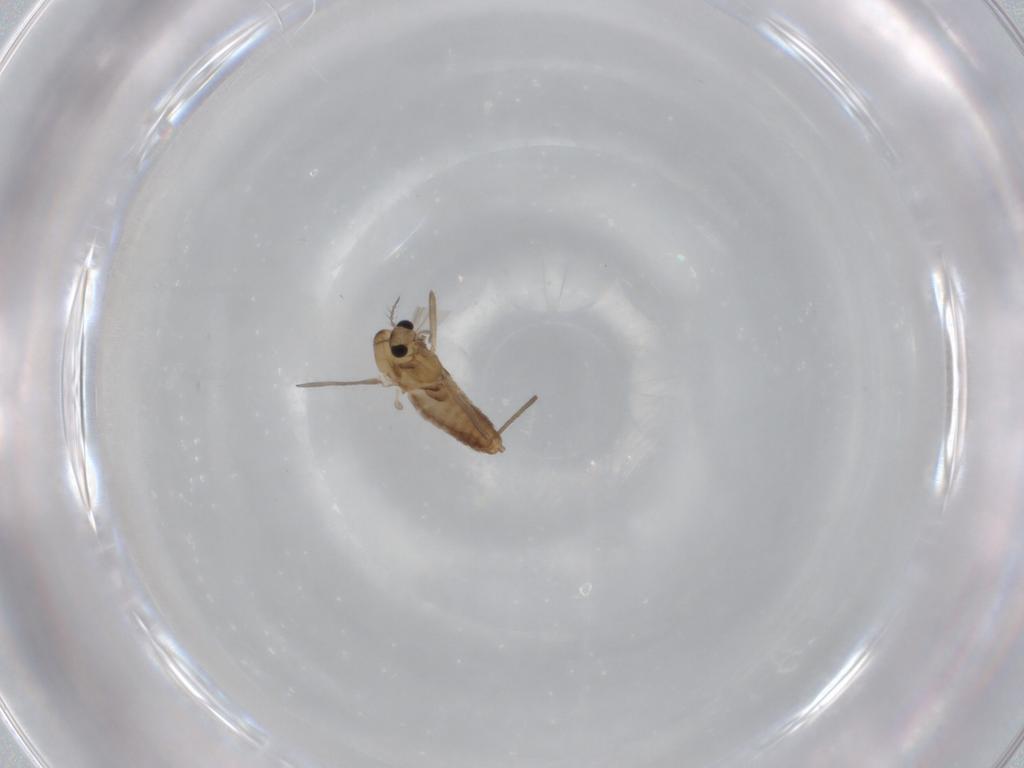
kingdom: Animalia
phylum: Arthropoda
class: Insecta
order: Diptera
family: Chironomidae
